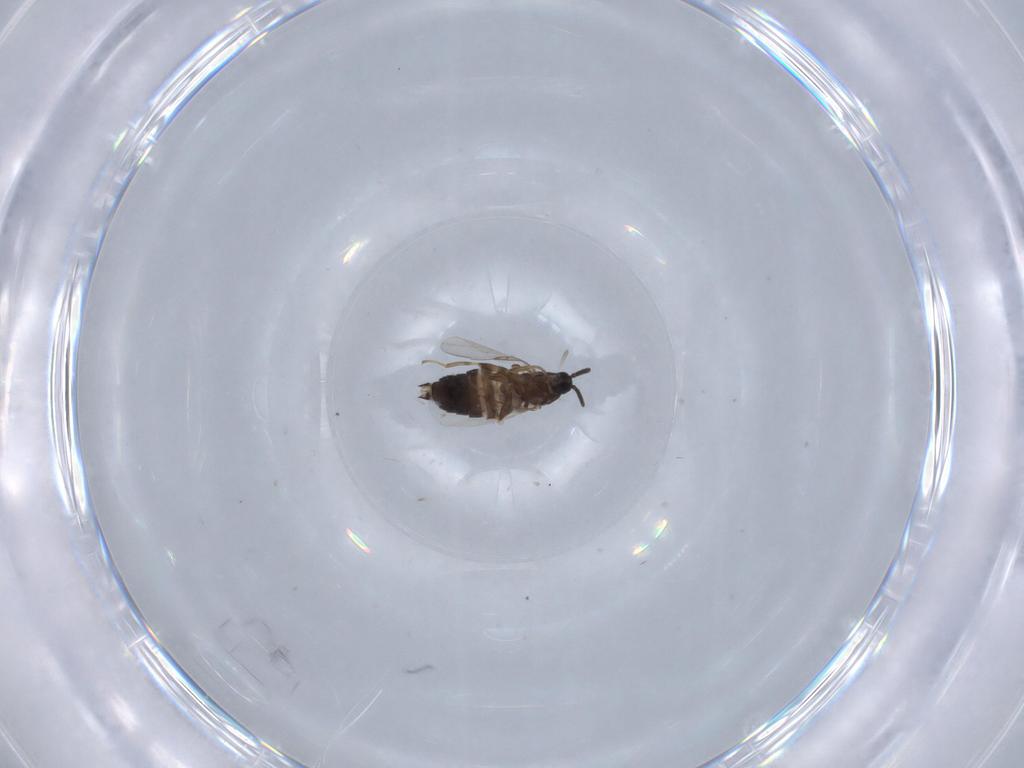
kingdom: Animalia
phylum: Arthropoda
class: Insecta
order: Diptera
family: Scatopsidae
